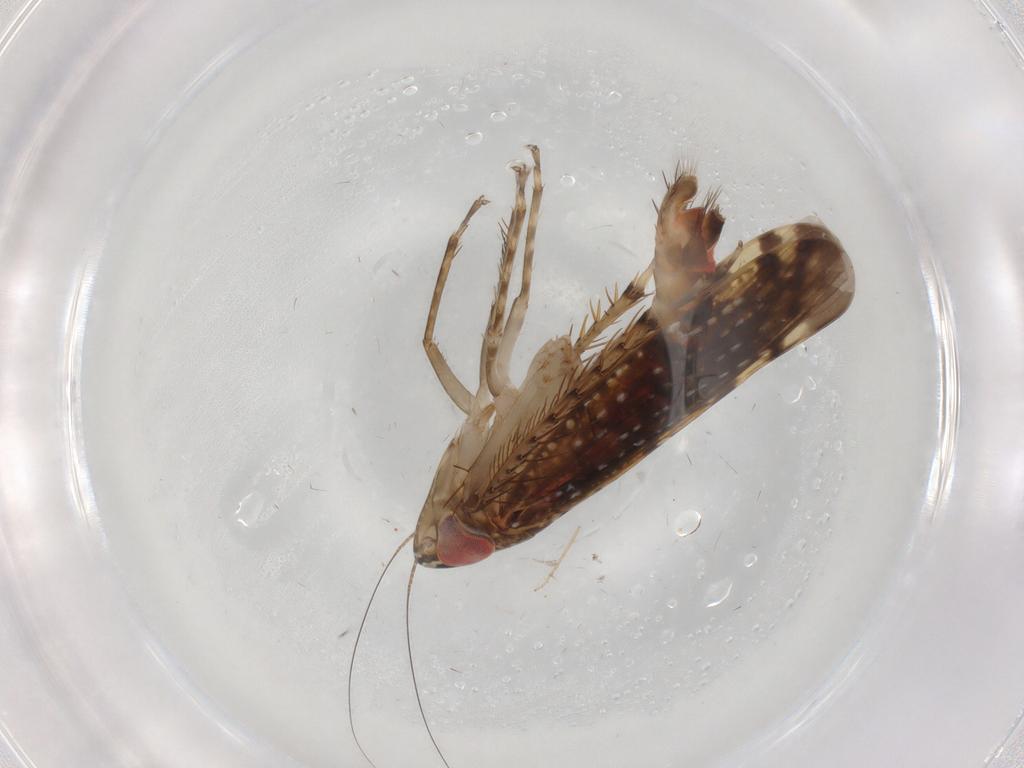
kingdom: Animalia
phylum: Arthropoda
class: Insecta
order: Hemiptera
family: Cicadellidae
